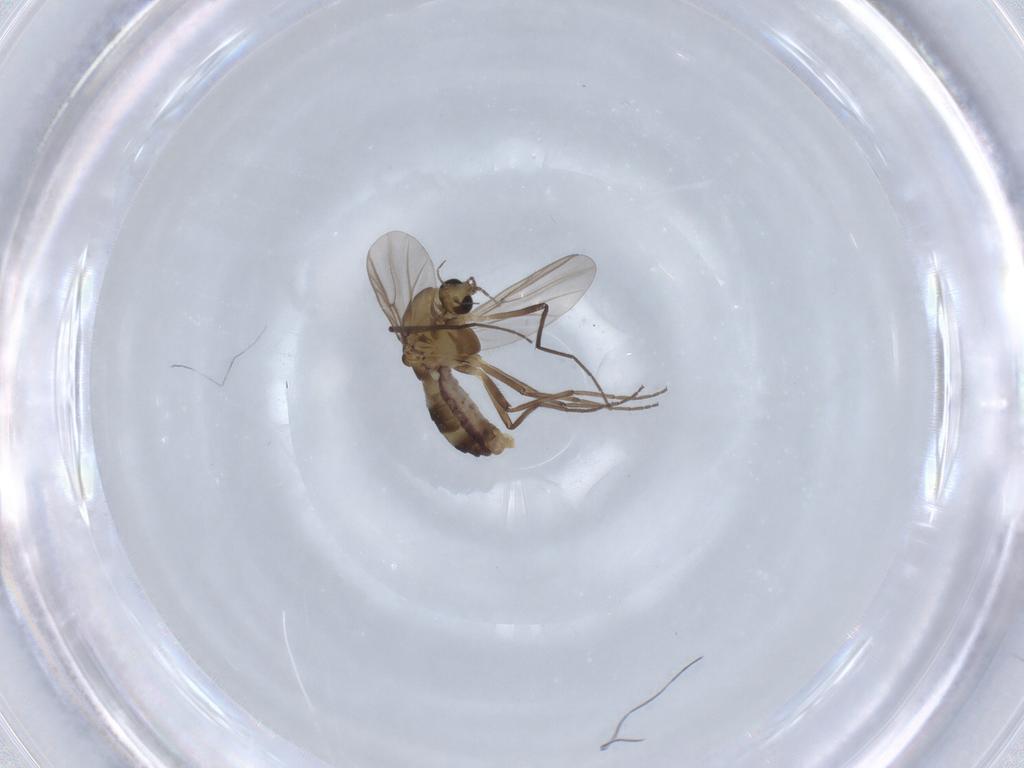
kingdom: Animalia
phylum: Arthropoda
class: Insecta
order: Diptera
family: Chironomidae
